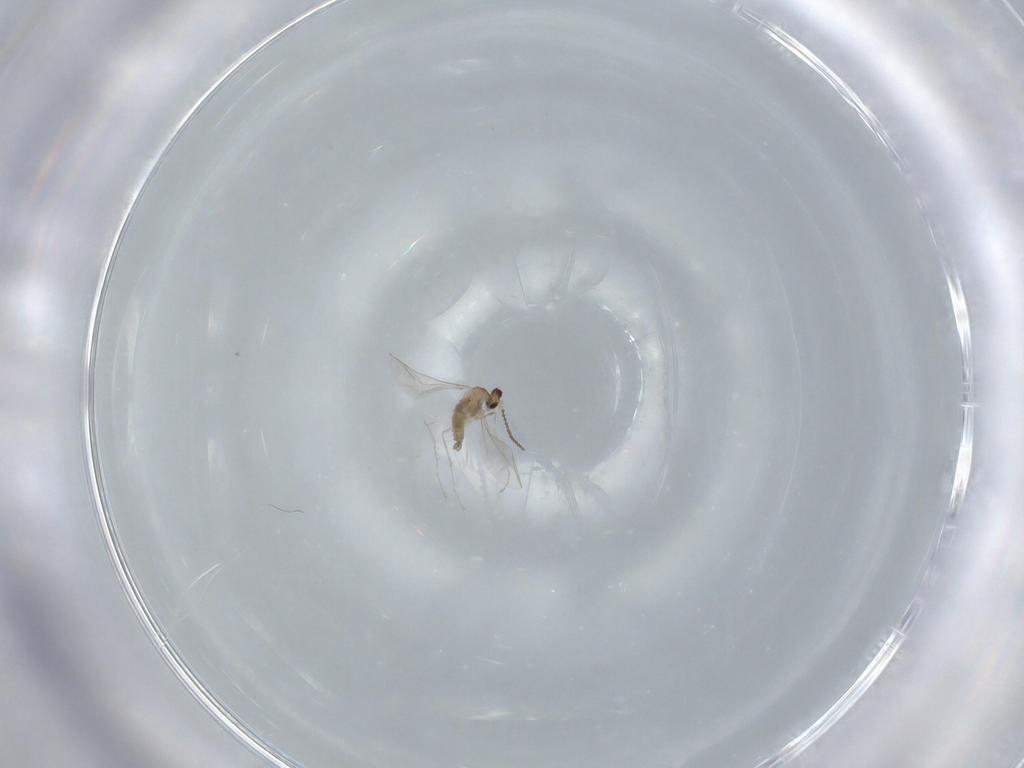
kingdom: Animalia
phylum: Arthropoda
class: Insecta
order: Diptera
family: Cecidomyiidae
